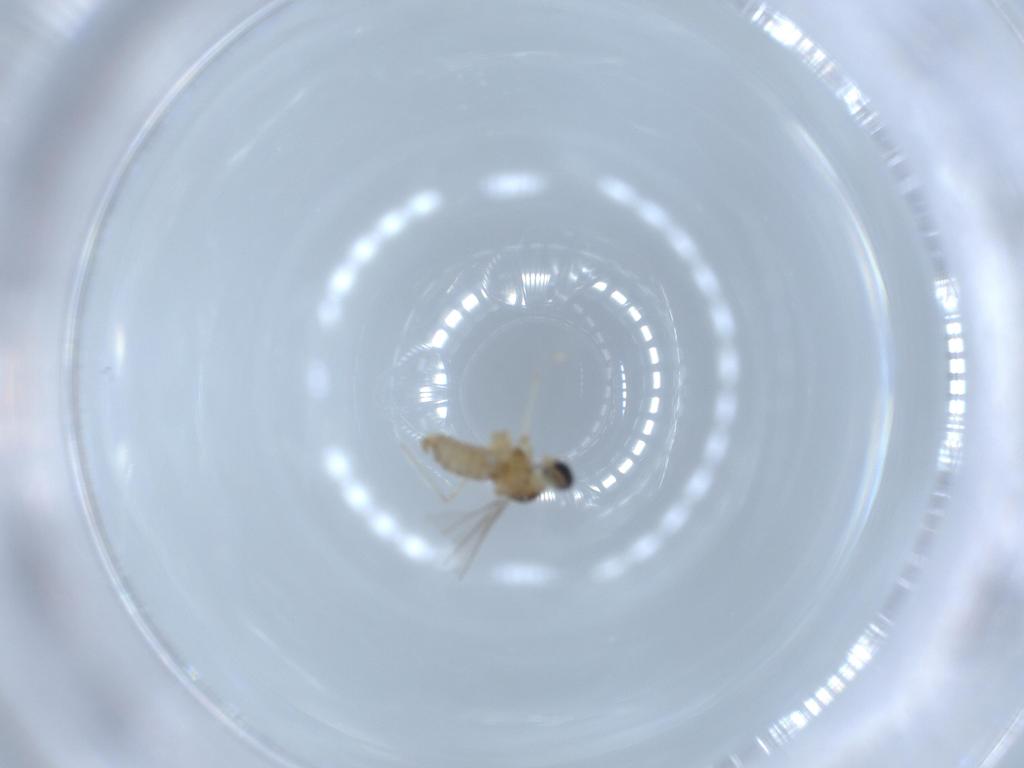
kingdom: Animalia
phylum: Arthropoda
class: Insecta
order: Diptera
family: Cecidomyiidae
